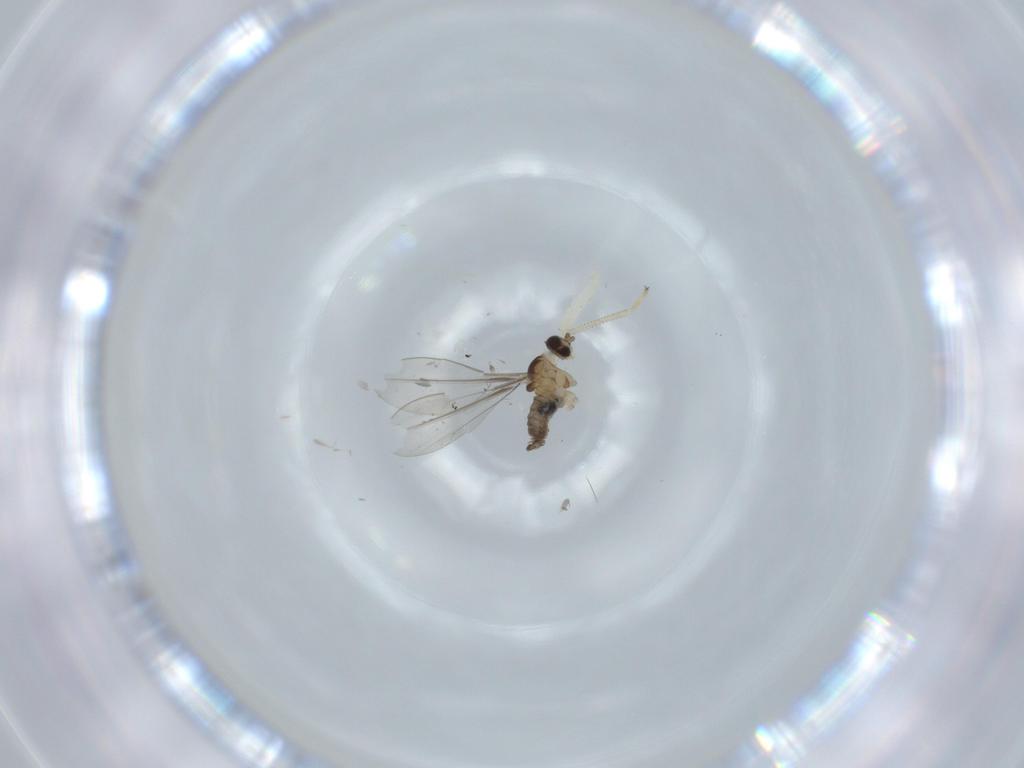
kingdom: Animalia
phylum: Arthropoda
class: Insecta
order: Diptera
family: Cecidomyiidae
